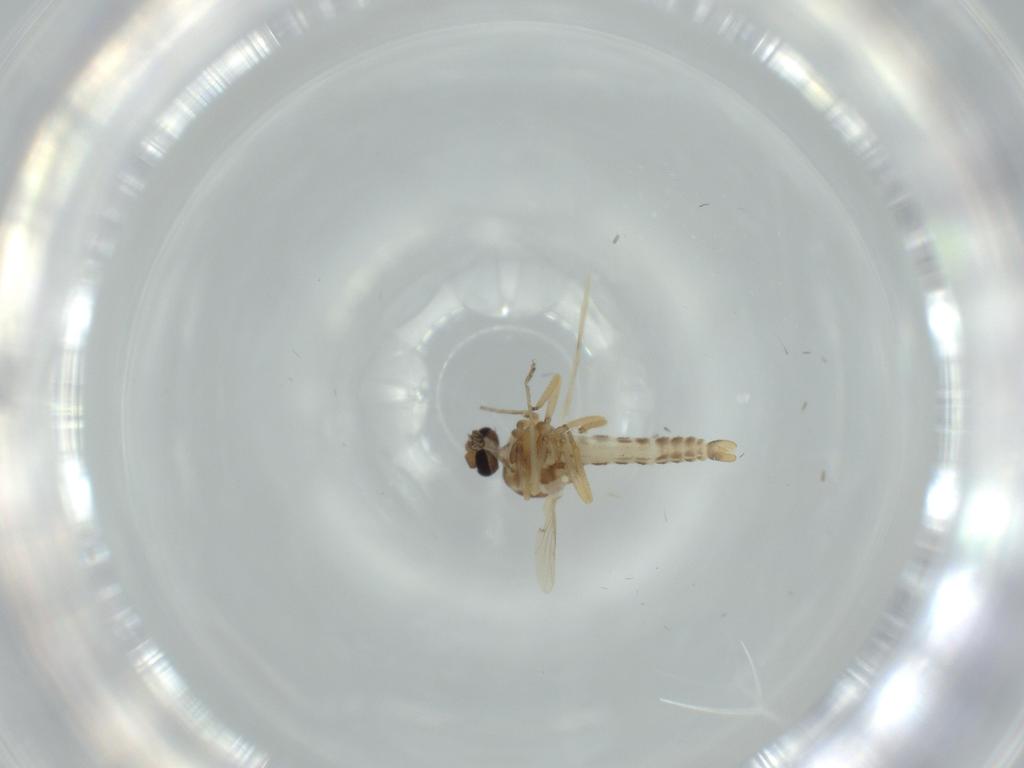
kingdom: Animalia
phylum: Arthropoda
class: Insecta
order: Diptera
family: Ceratopogonidae
